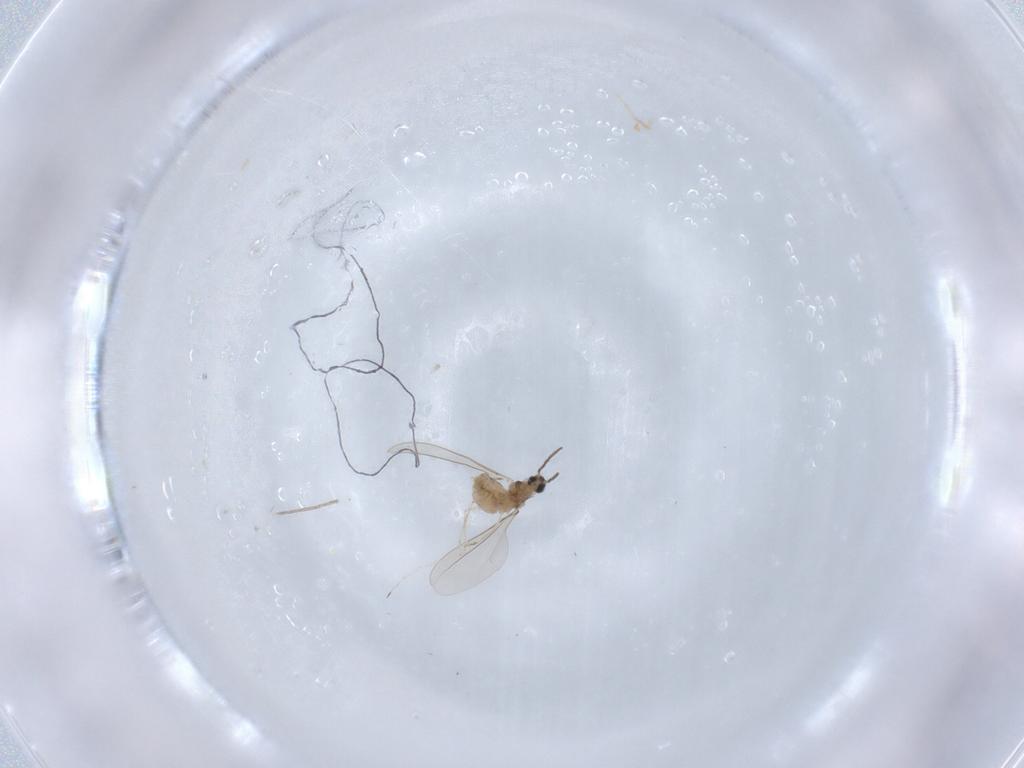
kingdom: Animalia
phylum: Arthropoda
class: Insecta
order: Diptera
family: Cecidomyiidae
